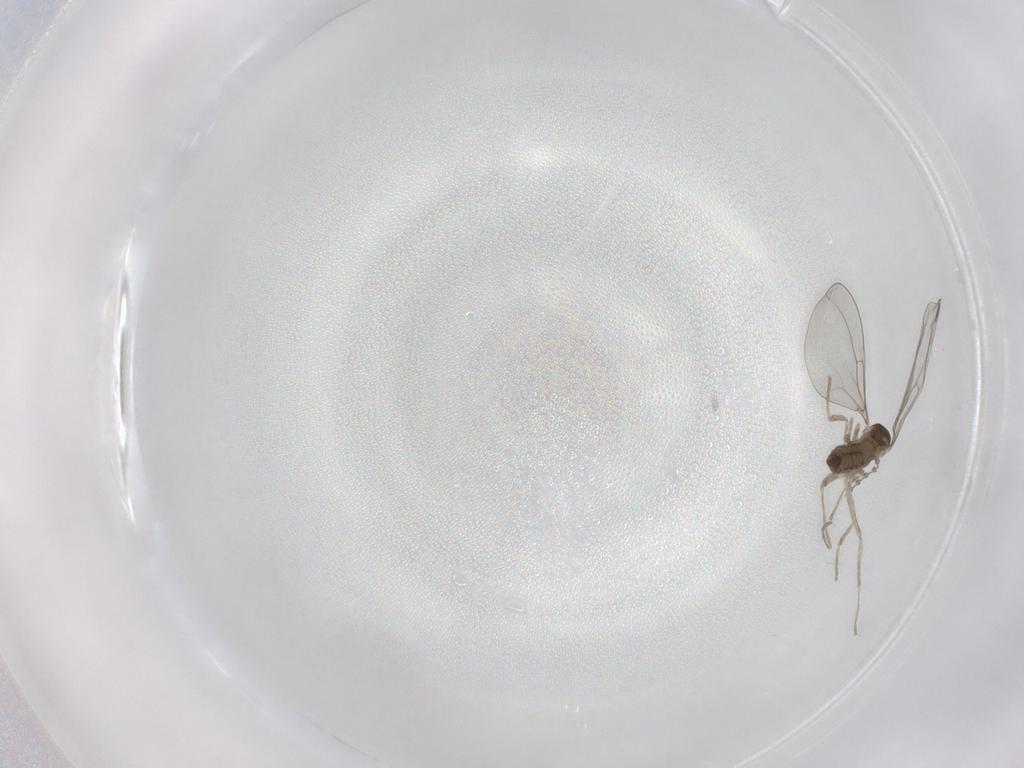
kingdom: Animalia
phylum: Arthropoda
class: Insecta
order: Diptera
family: Cecidomyiidae
